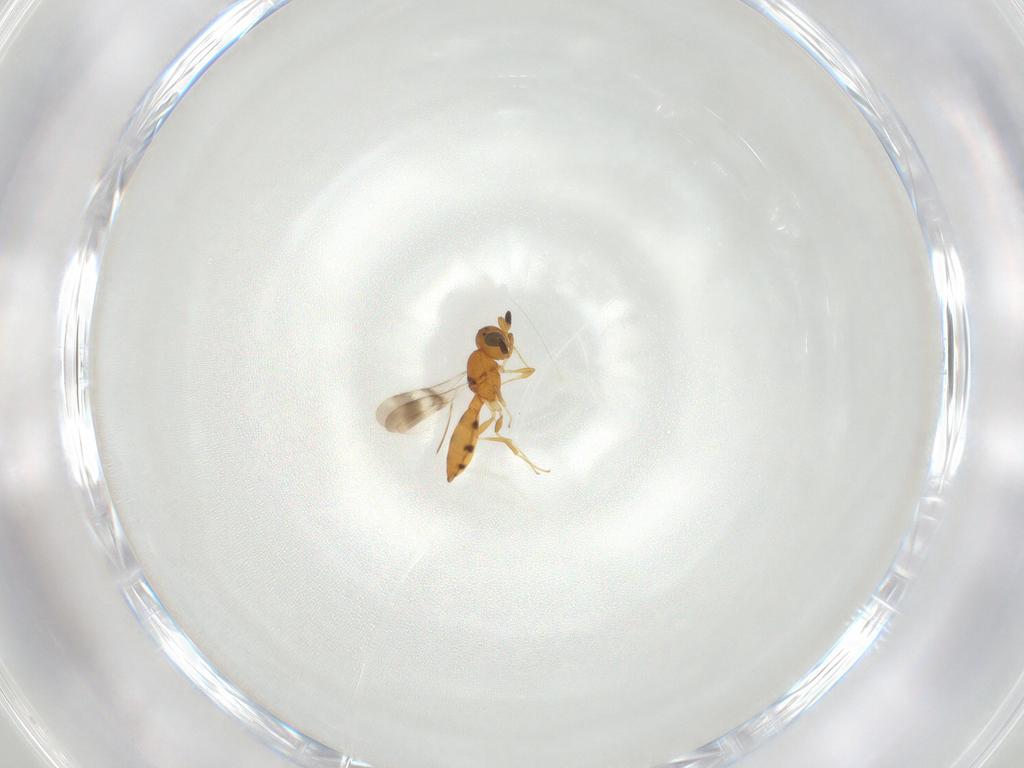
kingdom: Animalia
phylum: Arthropoda
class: Insecta
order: Hymenoptera
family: Scelionidae
